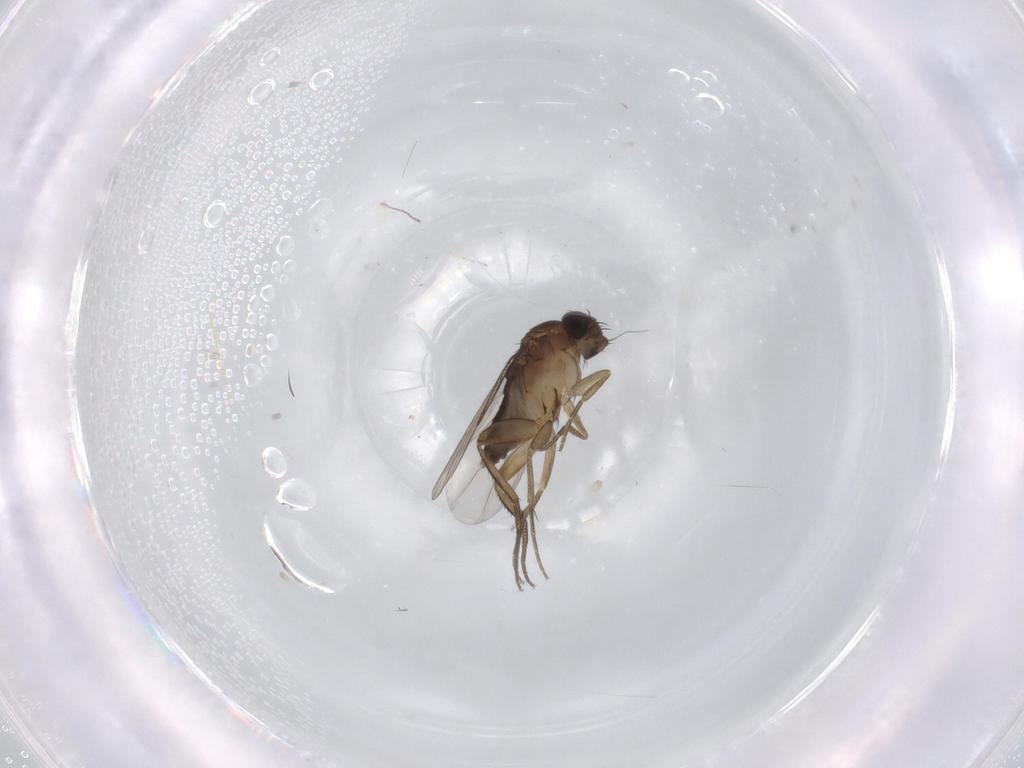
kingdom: Animalia
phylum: Arthropoda
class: Insecta
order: Diptera
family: Phoridae
